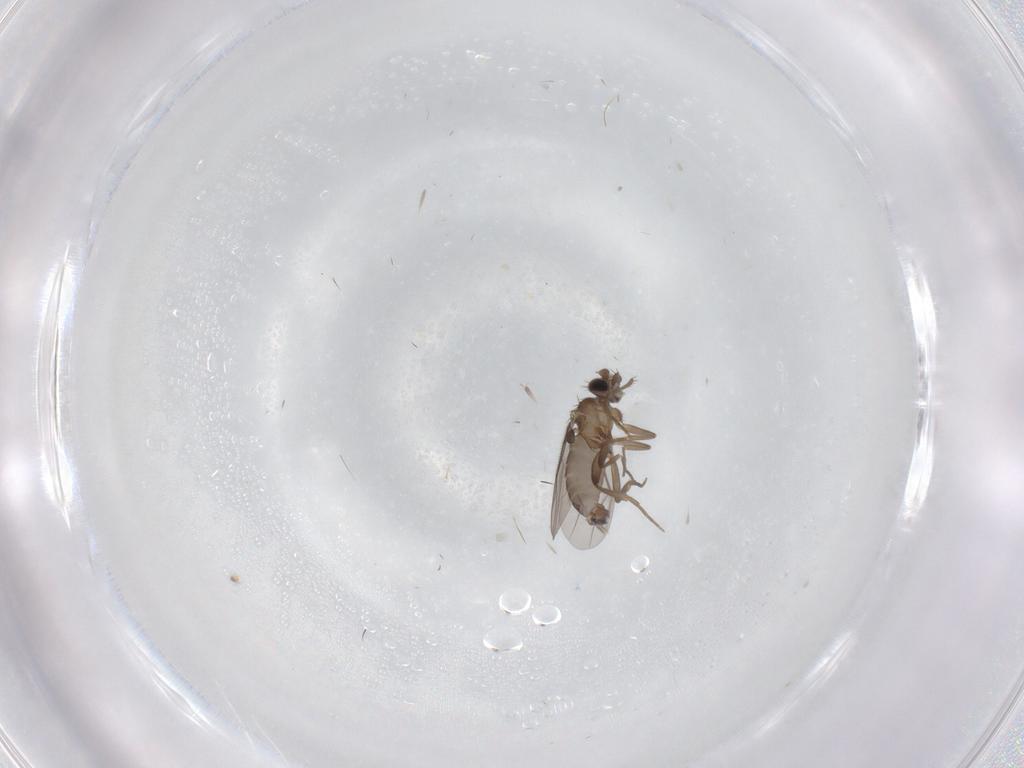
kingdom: Animalia
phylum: Arthropoda
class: Insecta
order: Diptera
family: Phoridae
